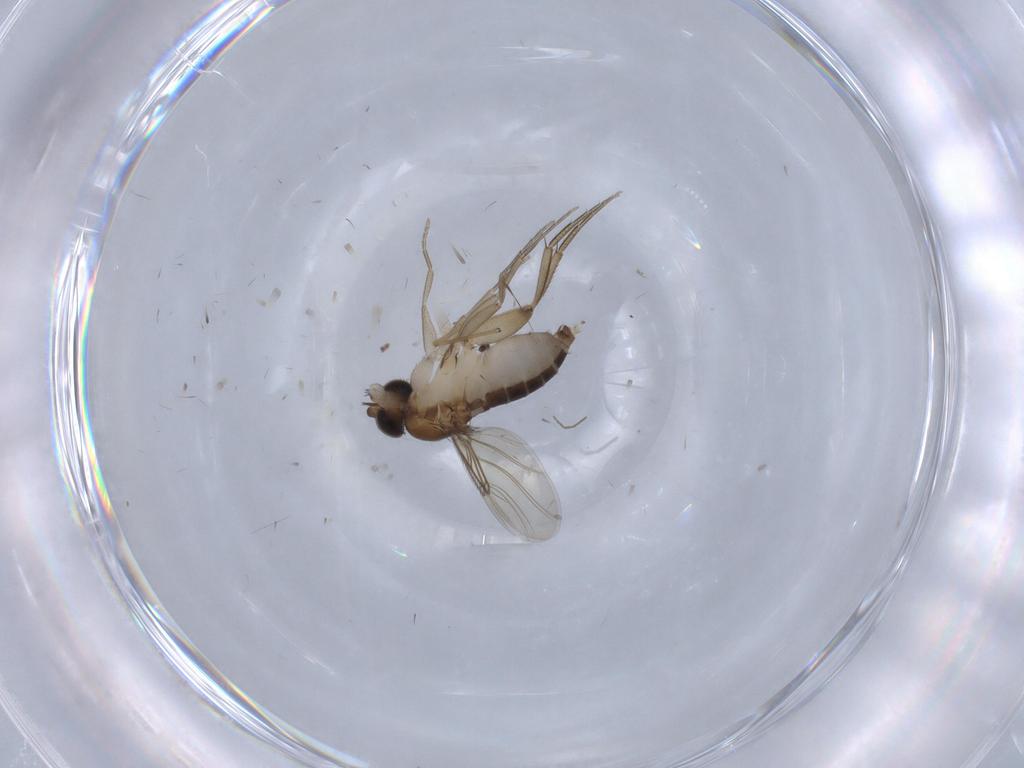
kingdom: Animalia
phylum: Arthropoda
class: Insecta
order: Diptera
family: Phoridae
